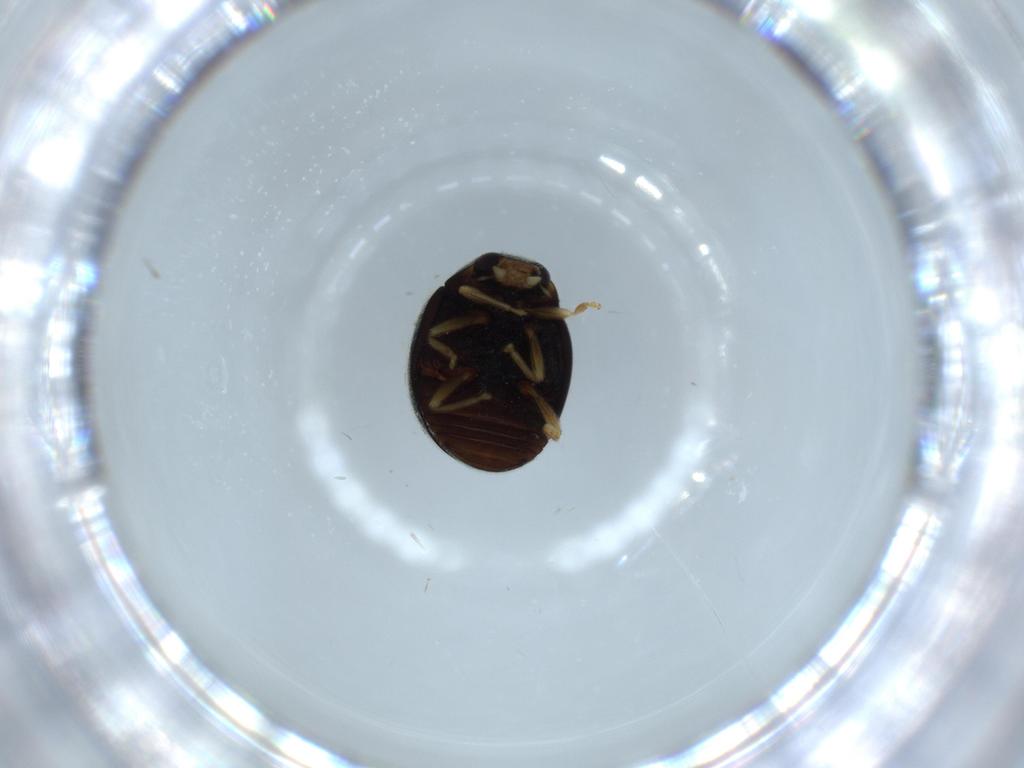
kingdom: Animalia
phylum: Arthropoda
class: Insecta
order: Coleoptera
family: Coccinellidae
